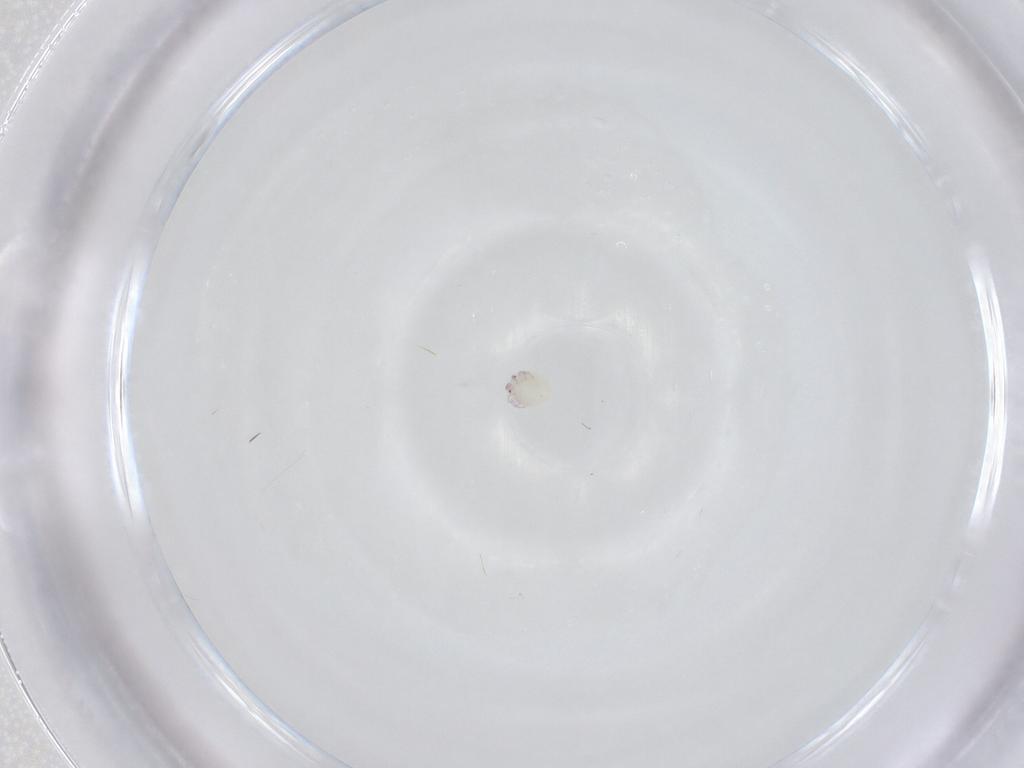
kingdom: Animalia
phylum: Arthropoda
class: Arachnida
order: Trombidiformes
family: Arrenuridae
